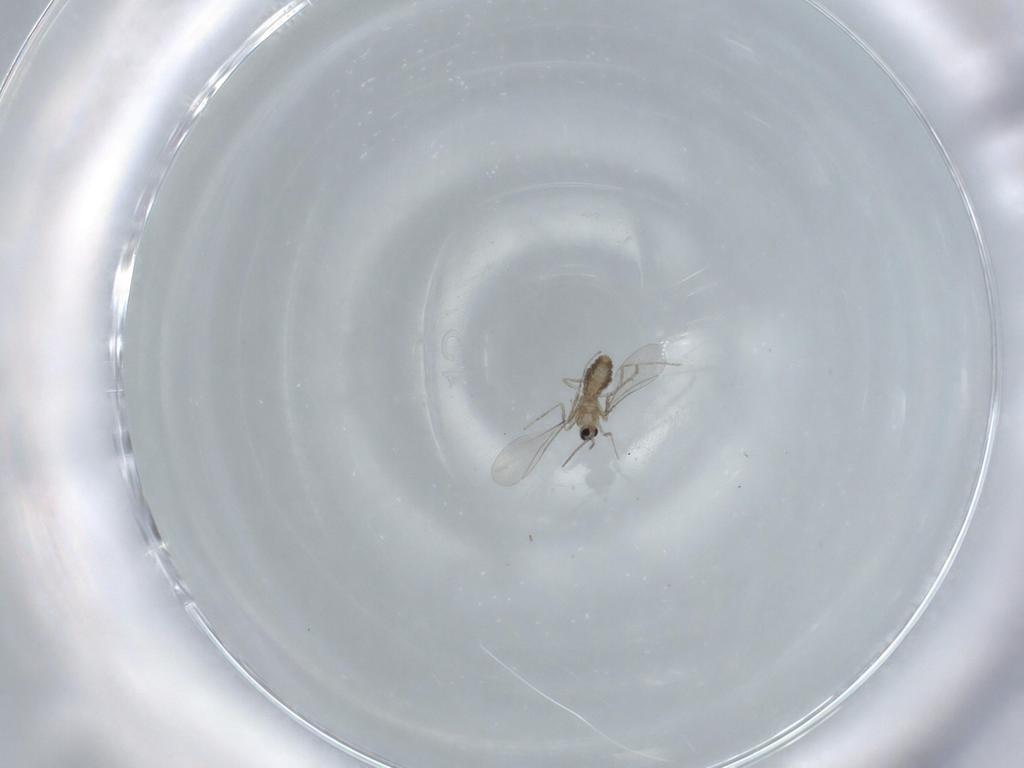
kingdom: Animalia
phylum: Arthropoda
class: Insecta
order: Diptera
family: Cecidomyiidae
